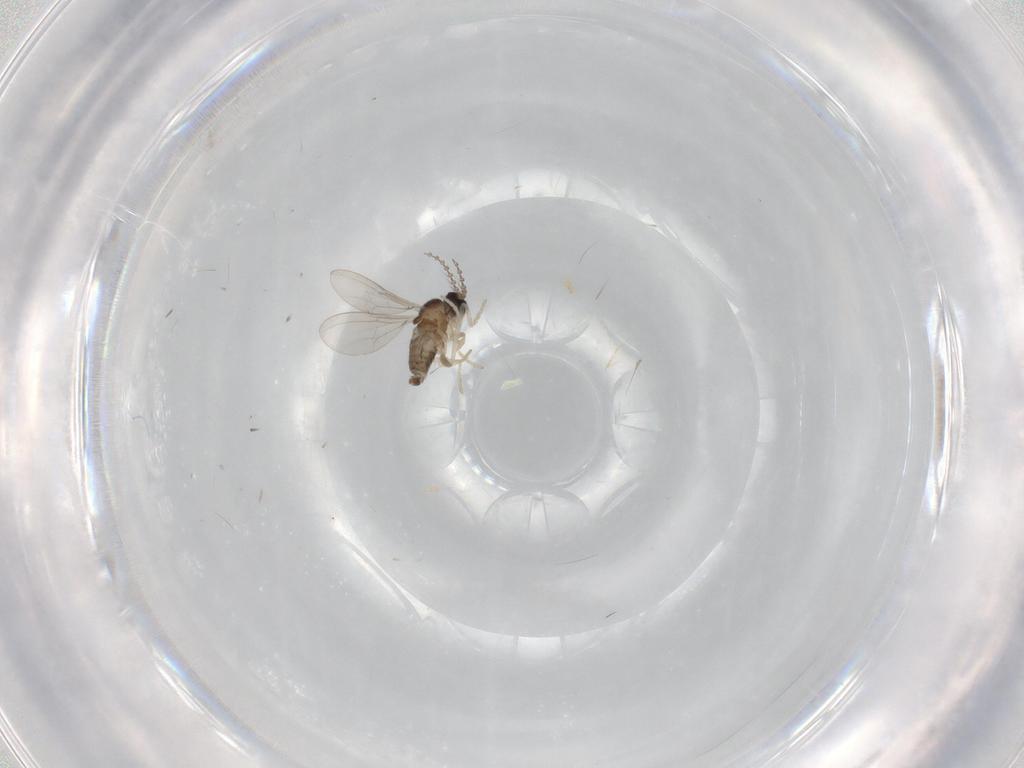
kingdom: Animalia
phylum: Arthropoda
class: Insecta
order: Diptera
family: Cecidomyiidae
